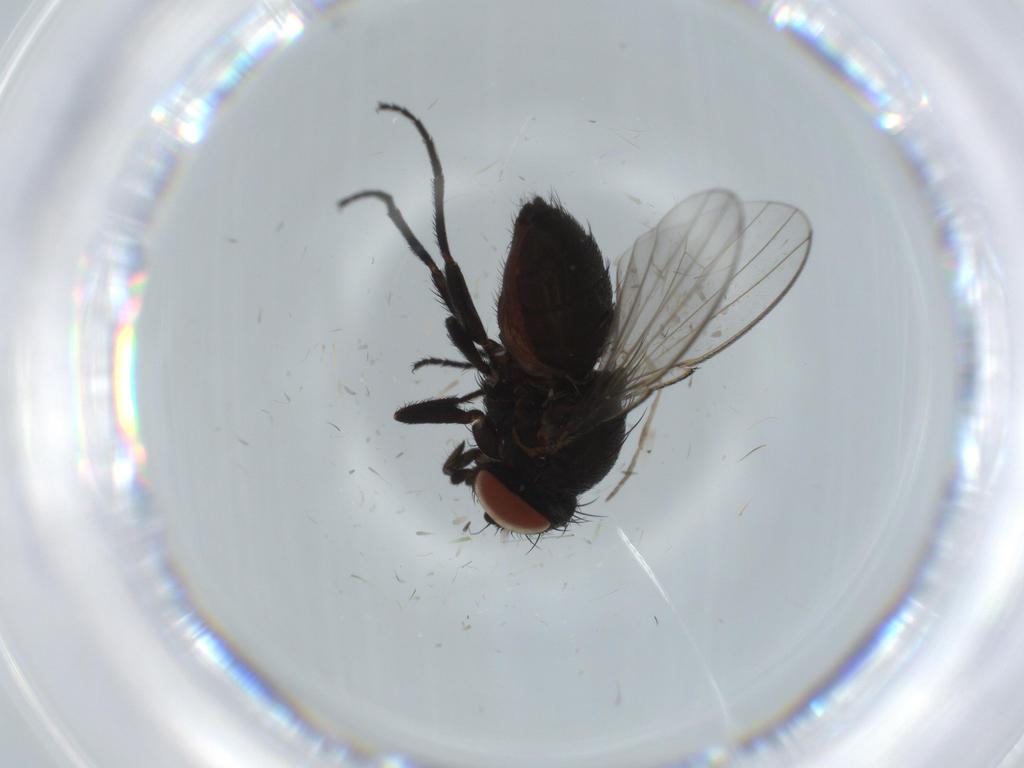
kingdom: Animalia
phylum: Arthropoda
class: Insecta
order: Diptera
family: Milichiidae
